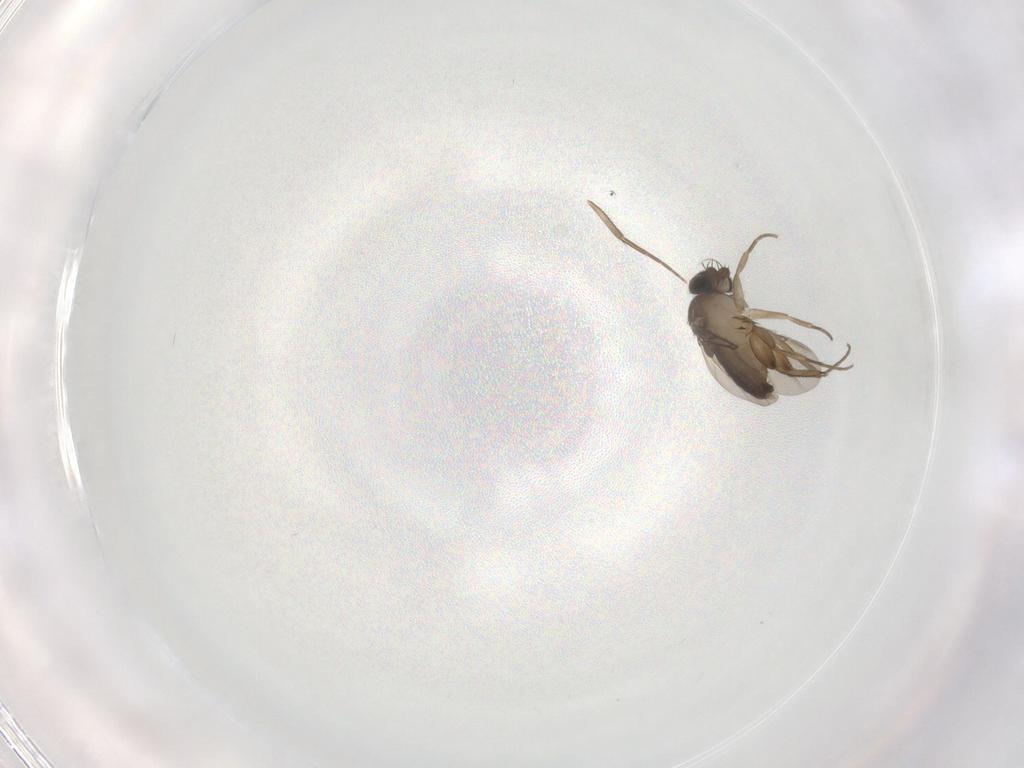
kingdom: Animalia
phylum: Arthropoda
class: Insecta
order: Diptera
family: Phoridae
